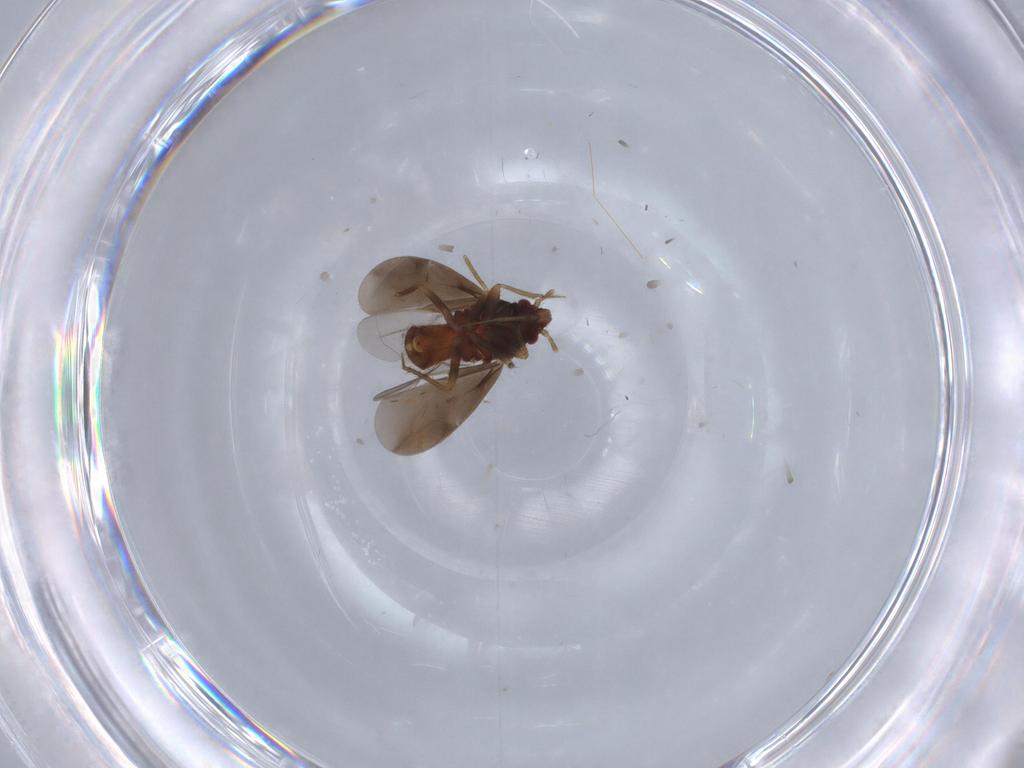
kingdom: Animalia
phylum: Arthropoda
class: Insecta
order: Hemiptera
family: Ceratocombidae
